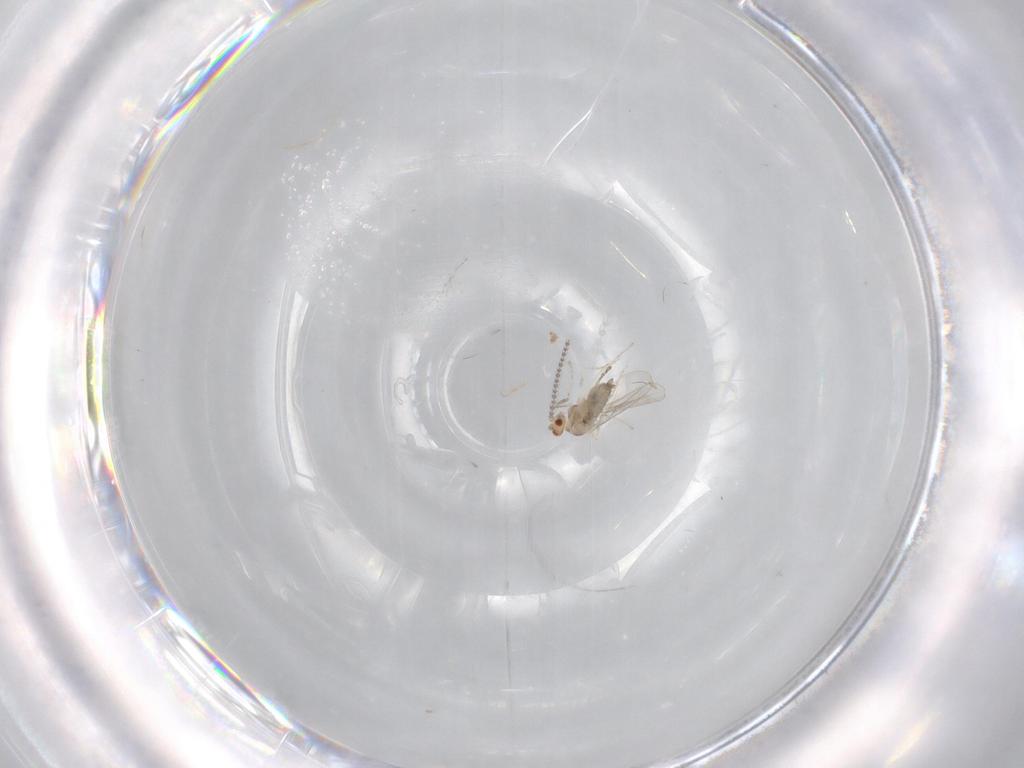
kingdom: Animalia
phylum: Arthropoda
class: Insecta
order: Diptera
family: Cecidomyiidae
